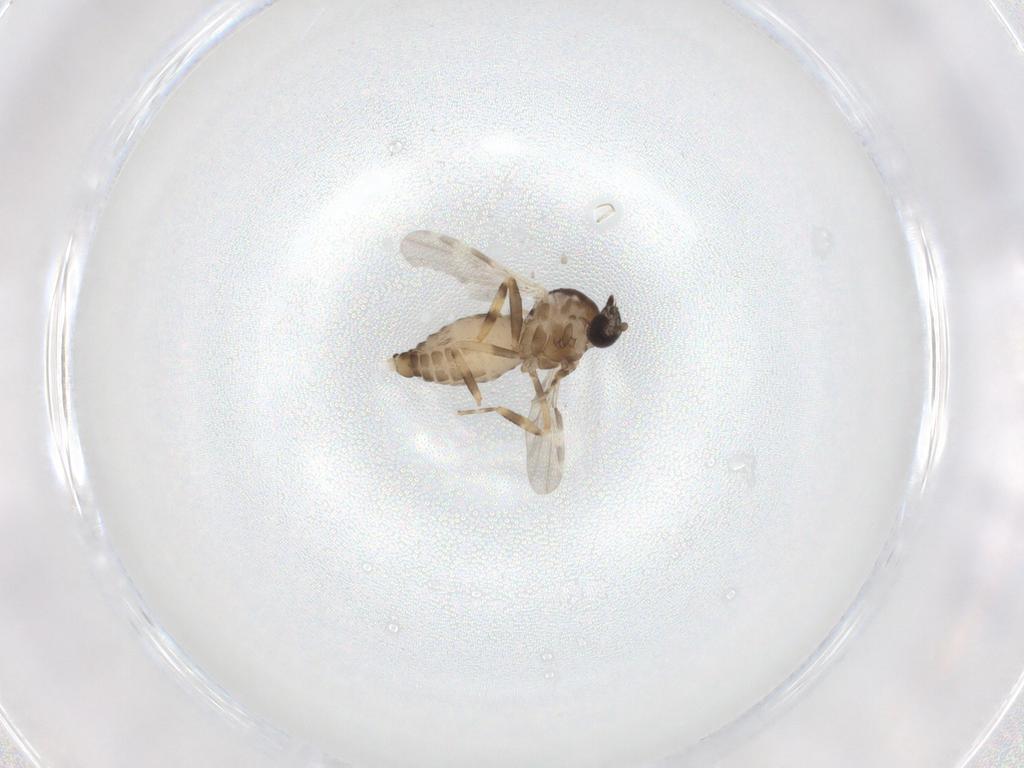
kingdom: Animalia
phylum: Arthropoda
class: Insecta
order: Diptera
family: Ceratopogonidae
